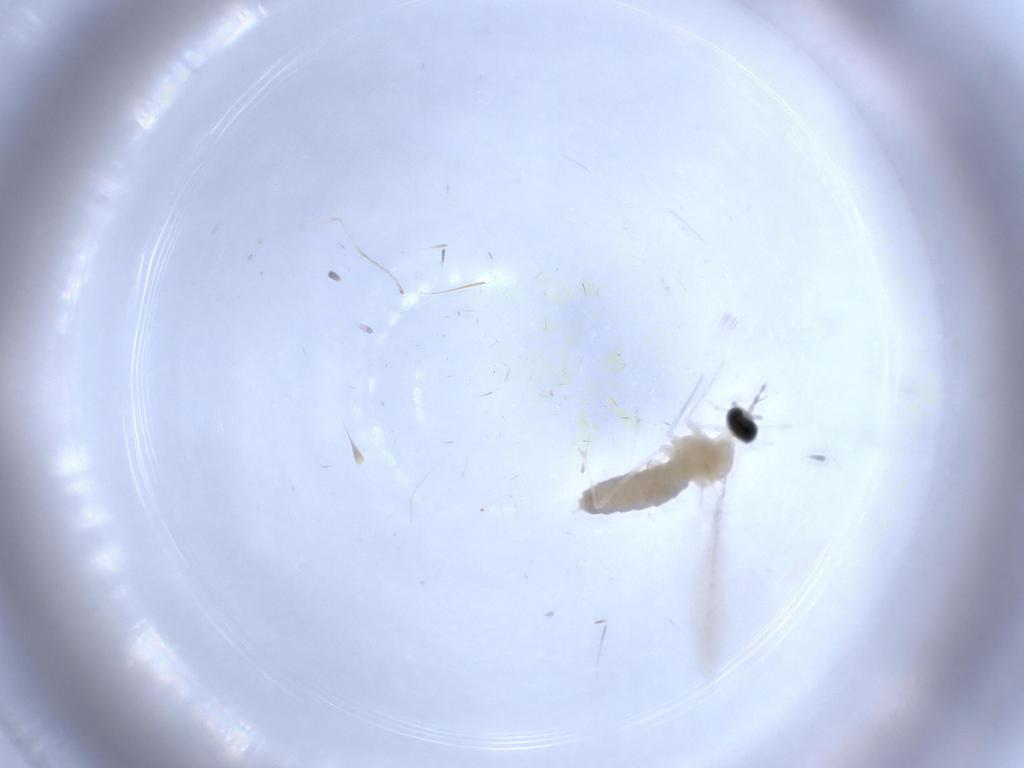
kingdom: Animalia
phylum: Arthropoda
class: Insecta
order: Diptera
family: Cecidomyiidae
